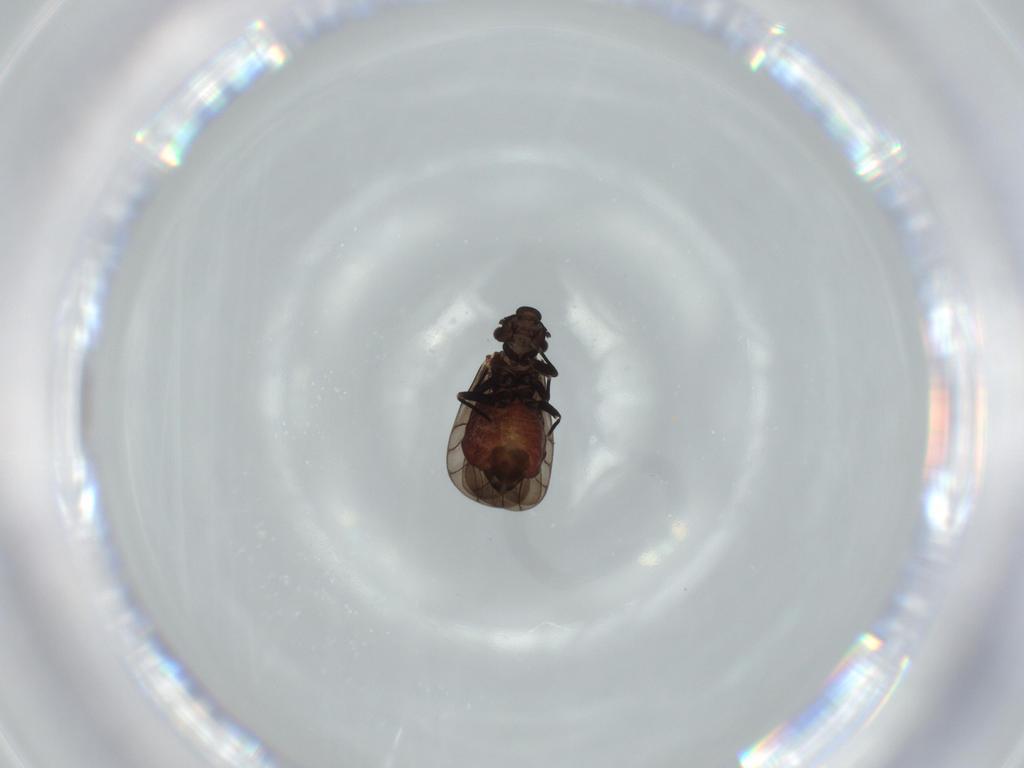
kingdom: Animalia
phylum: Arthropoda
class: Insecta
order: Psocodea
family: Lepidopsocidae
